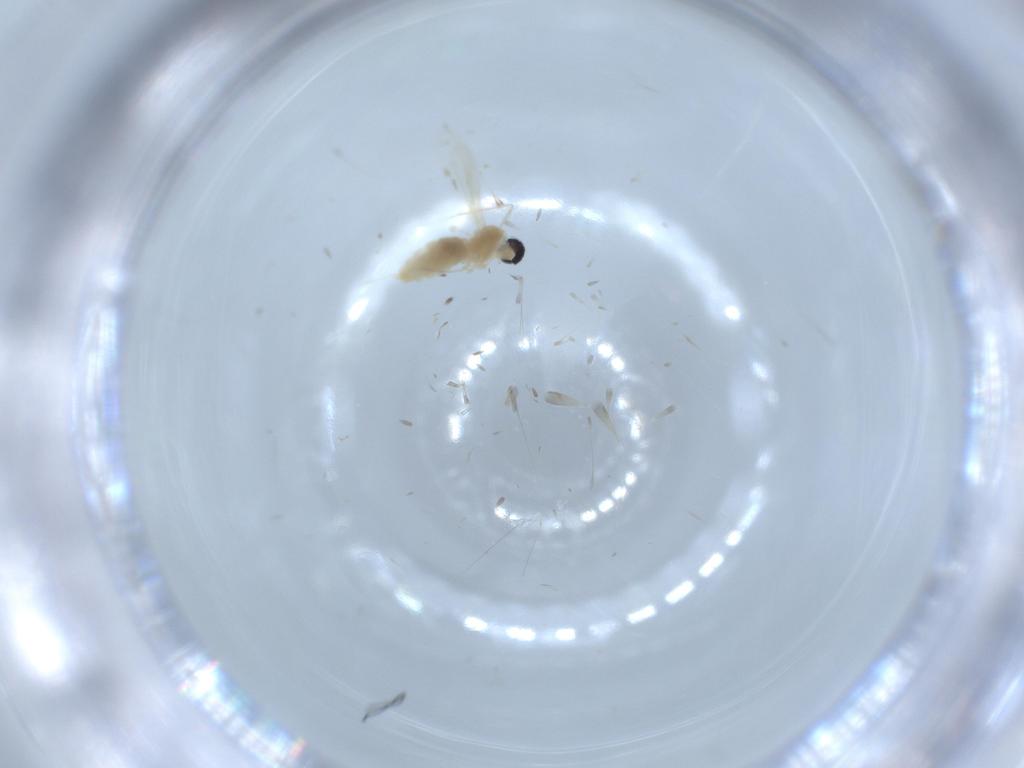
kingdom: Animalia
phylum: Arthropoda
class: Insecta
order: Diptera
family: Cecidomyiidae
